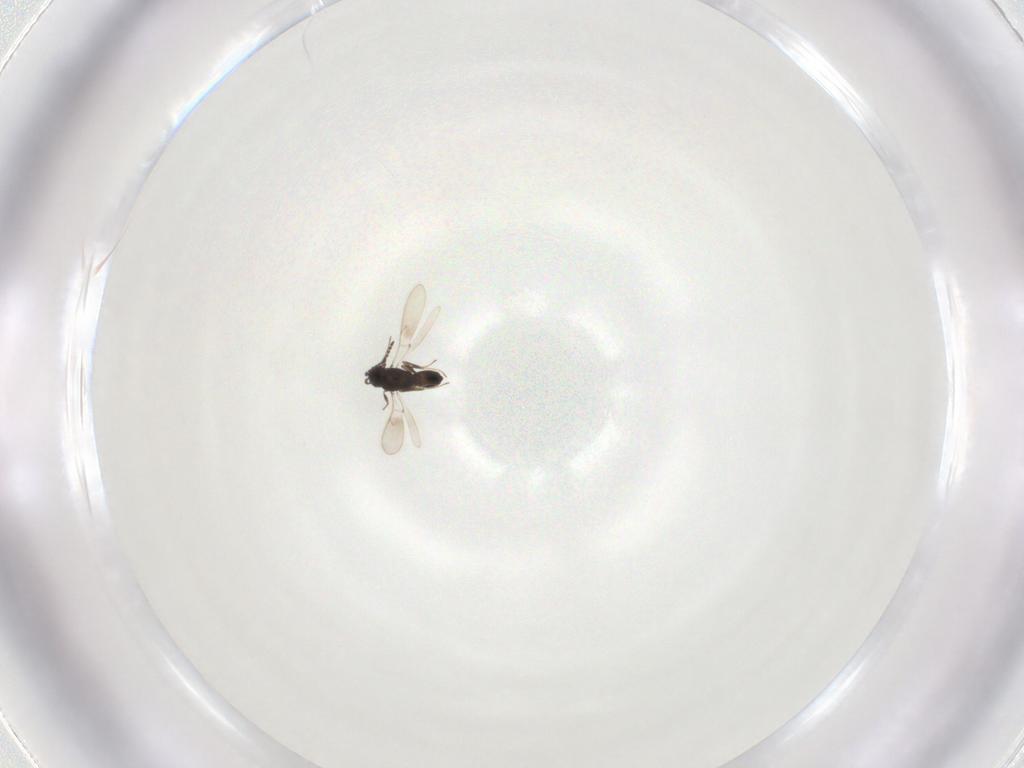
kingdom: Animalia
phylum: Arthropoda
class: Insecta
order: Hymenoptera
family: Scelionidae
